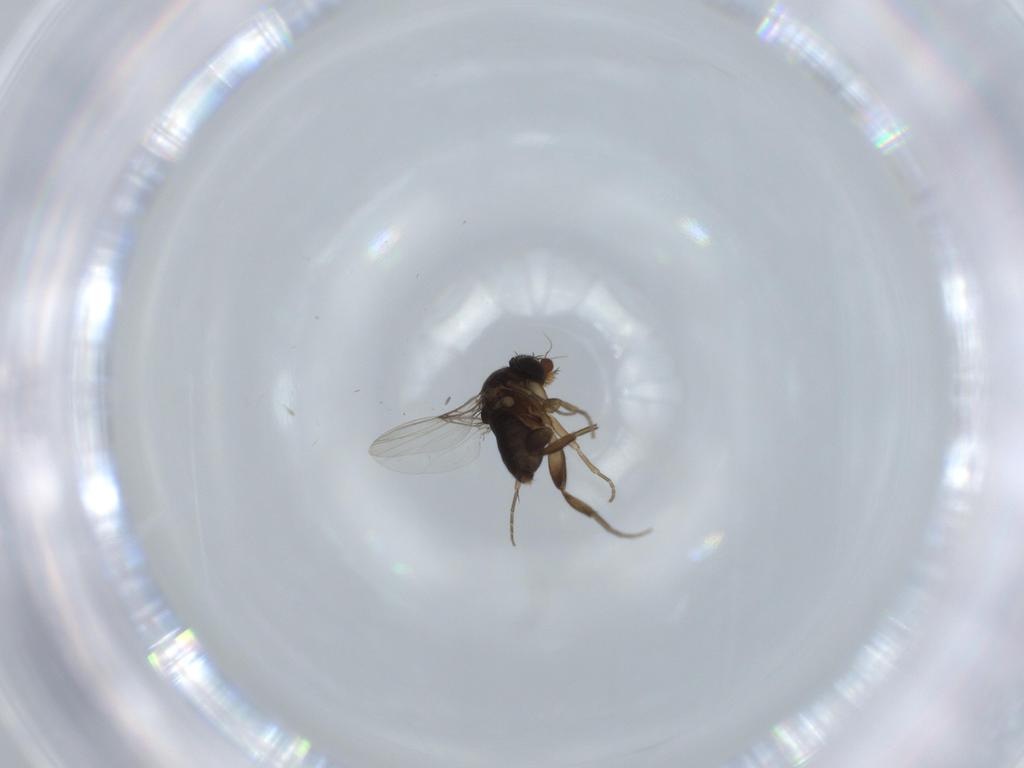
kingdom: Animalia
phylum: Arthropoda
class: Insecta
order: Diptera
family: Phoridae
